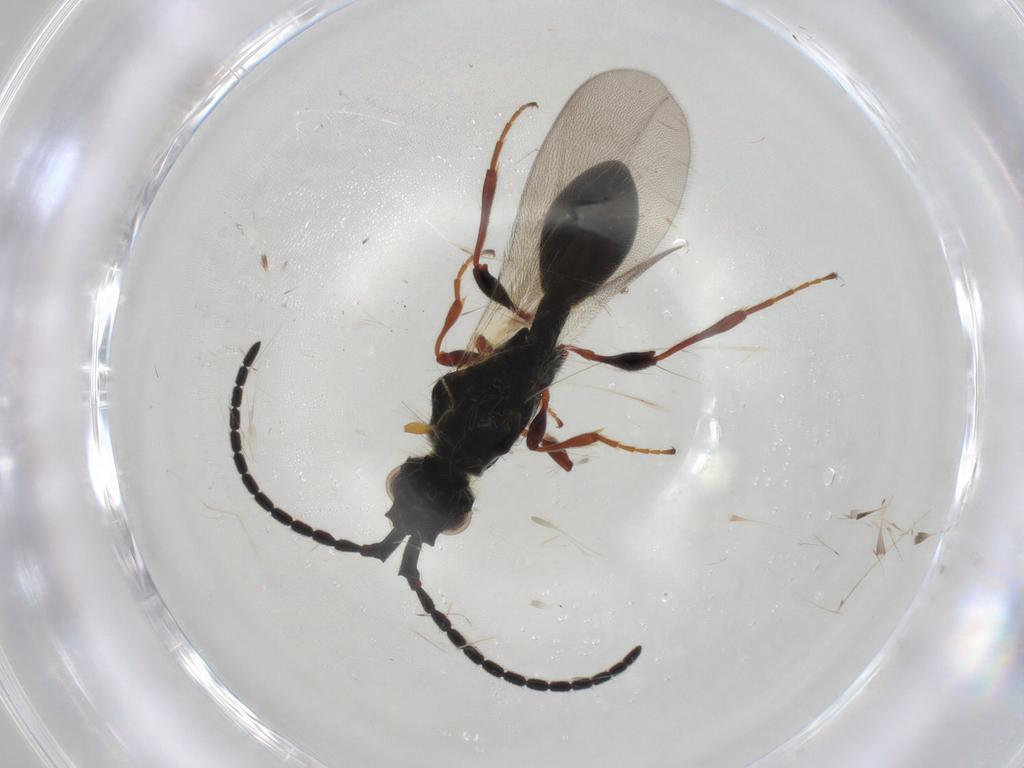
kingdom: Animalia
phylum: Arthropoda
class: Insecta
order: Hymenoptera
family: Diapriidae
